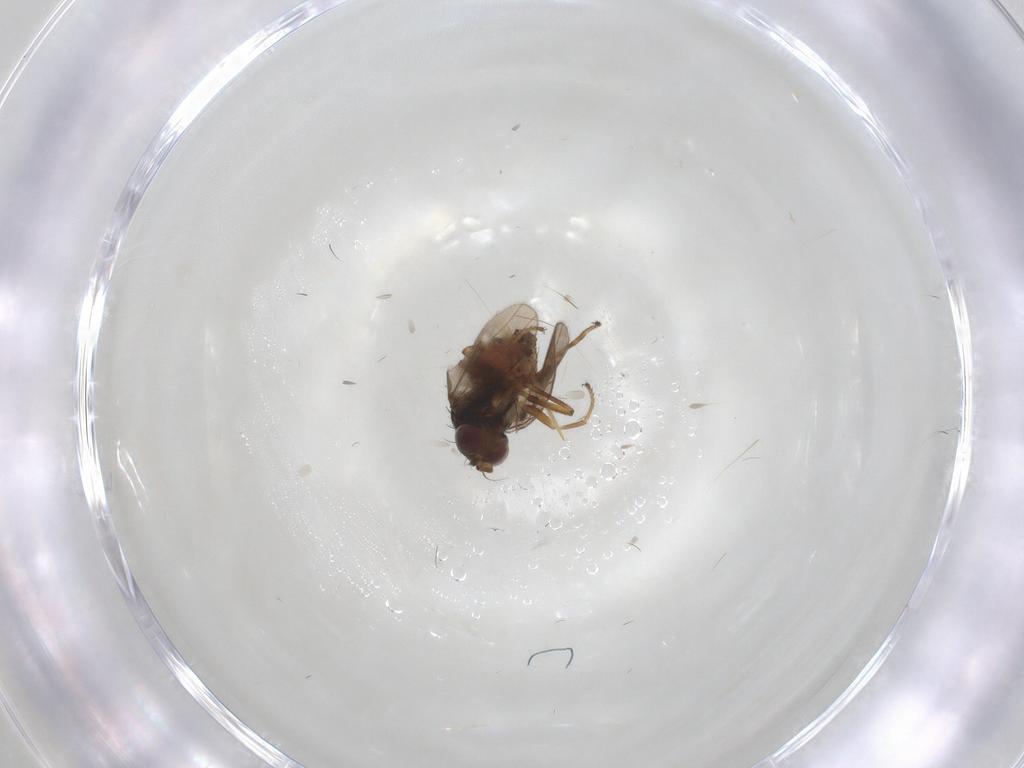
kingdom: Animalia
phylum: Arthropoda
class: Insecta
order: Diptera
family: Ephydridae
